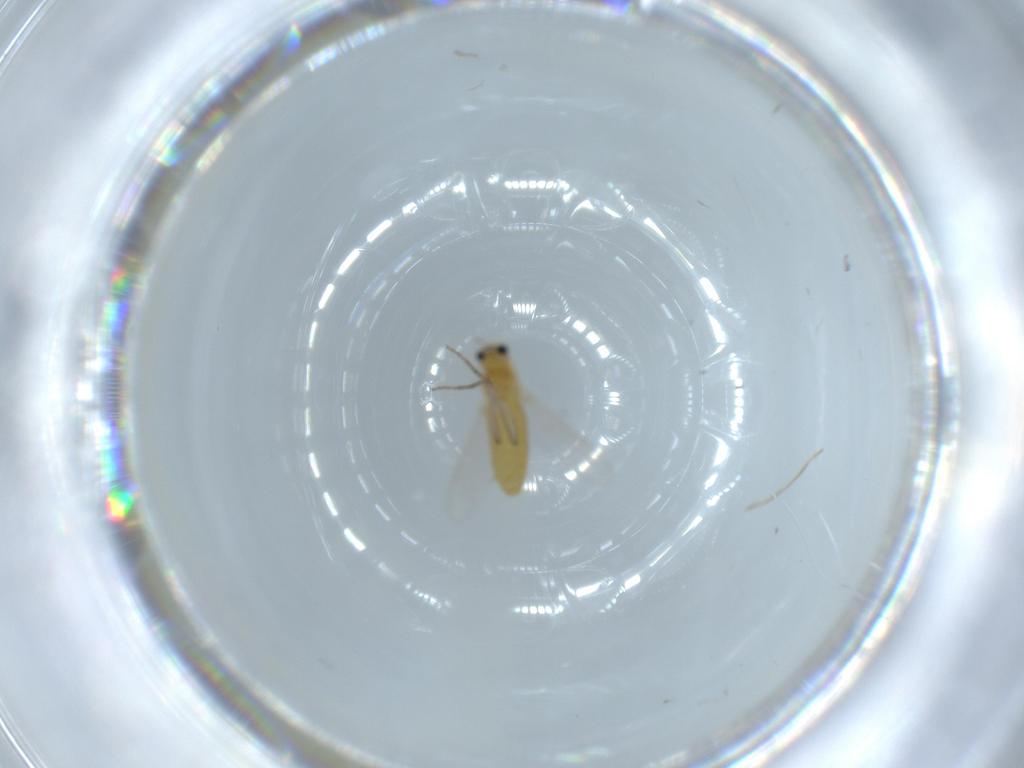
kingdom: Animalia
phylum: Arthropoda
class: Insecta
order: Diptera
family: Chironomidae
